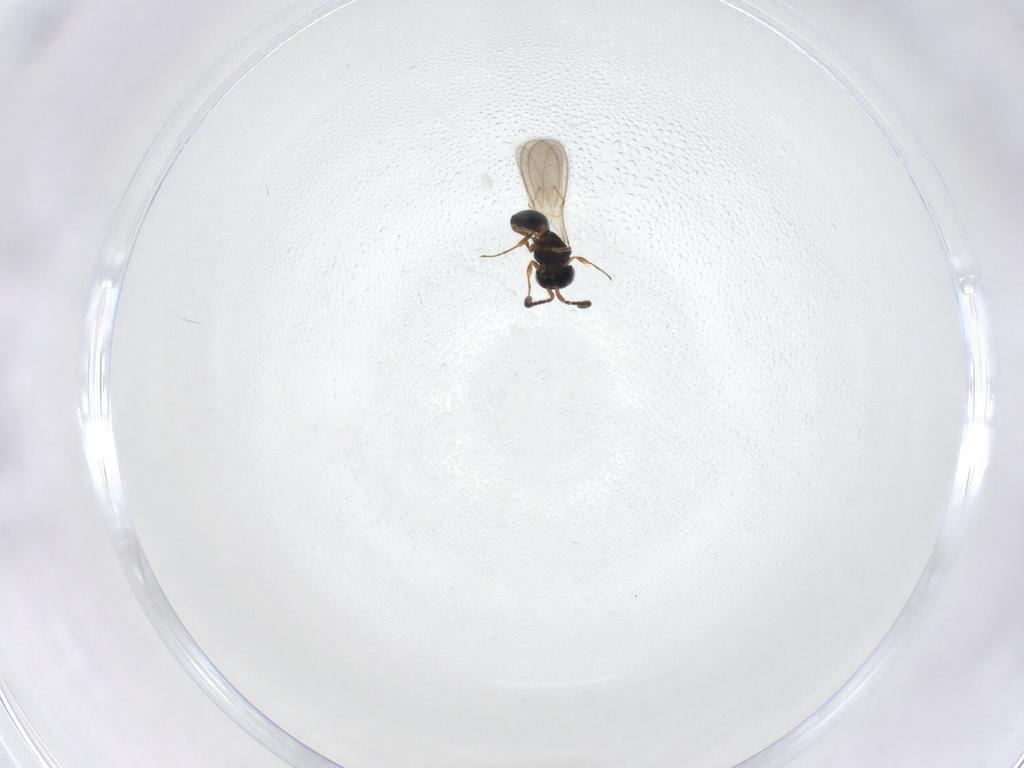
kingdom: Animalia
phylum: Arthropoda
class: Insecta
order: Hymenoptera
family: Scelionidae
